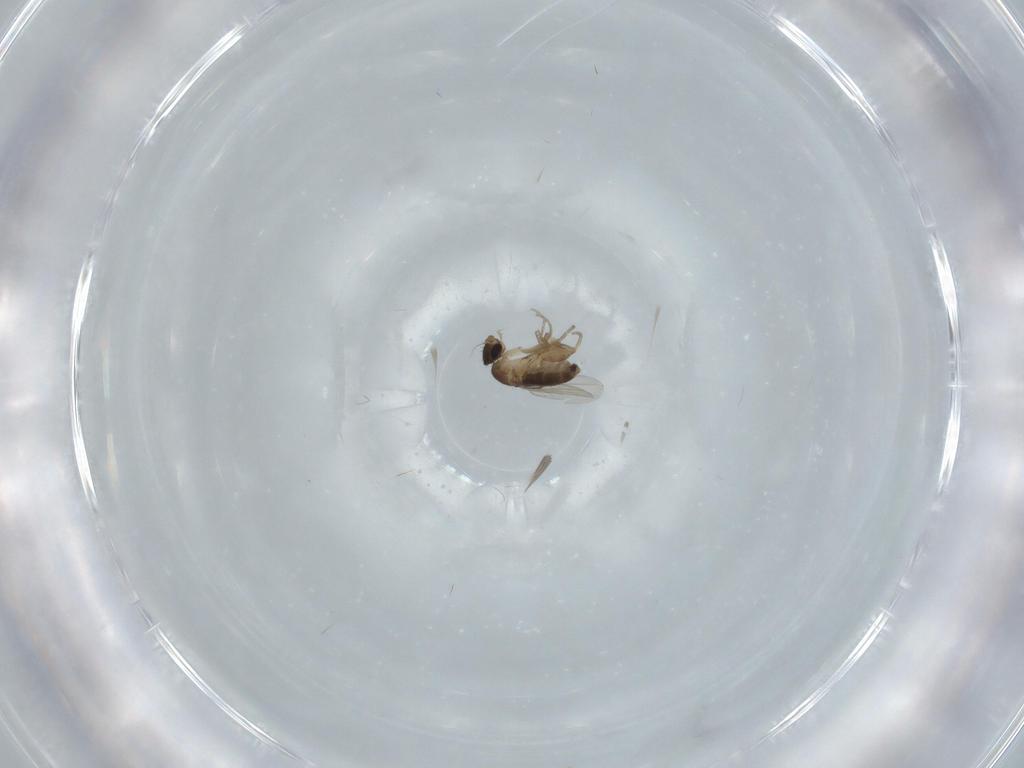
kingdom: Animalia
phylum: Arthropoda
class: Insecta
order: Diptera
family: Phoridae
